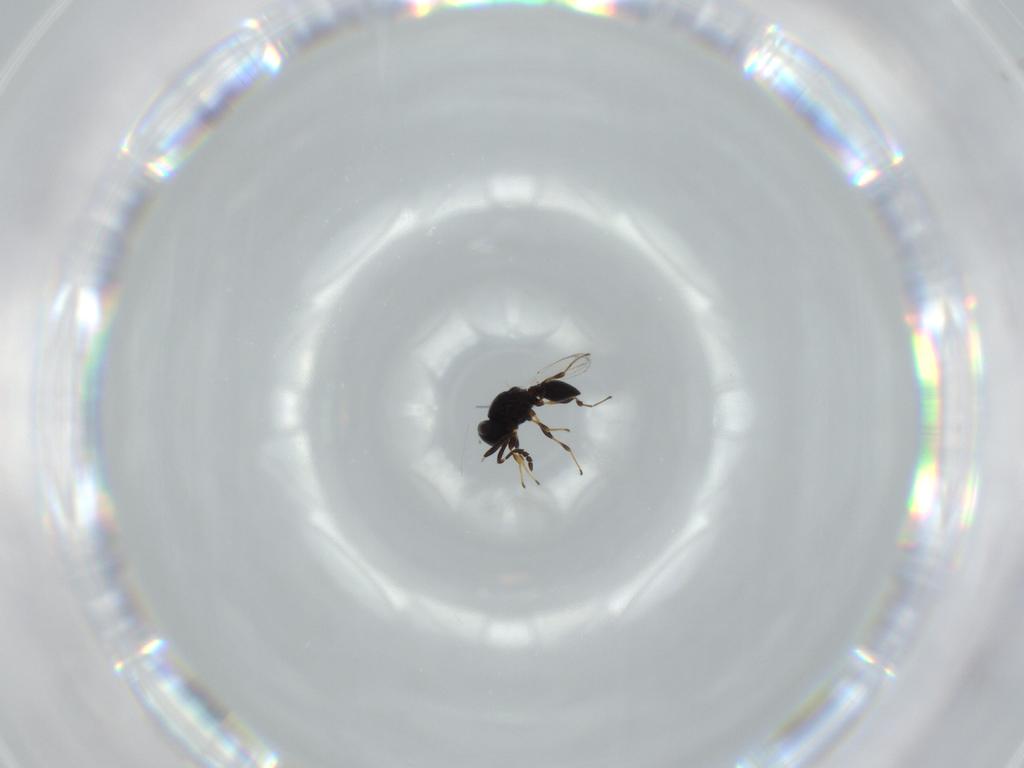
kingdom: Animalia
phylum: Arthropoda
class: Insecta
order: Hymenoptera
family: Platygastridae
